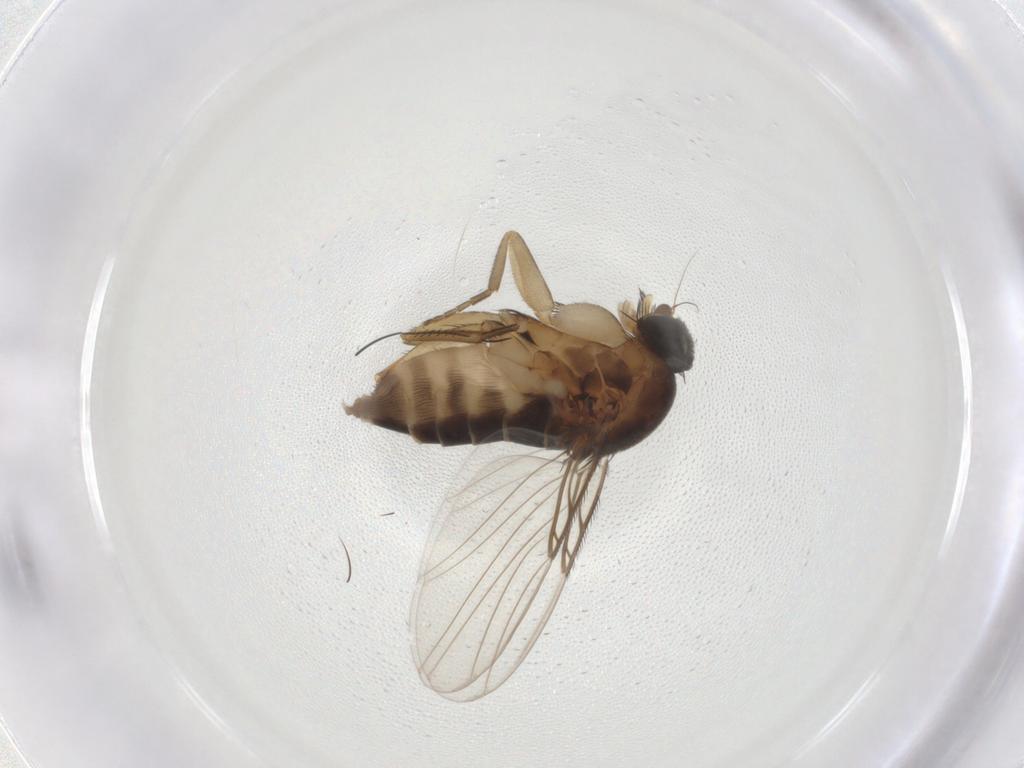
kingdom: Animalia
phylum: Arthropoda
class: Insecta
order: Diptera
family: Phoridae
